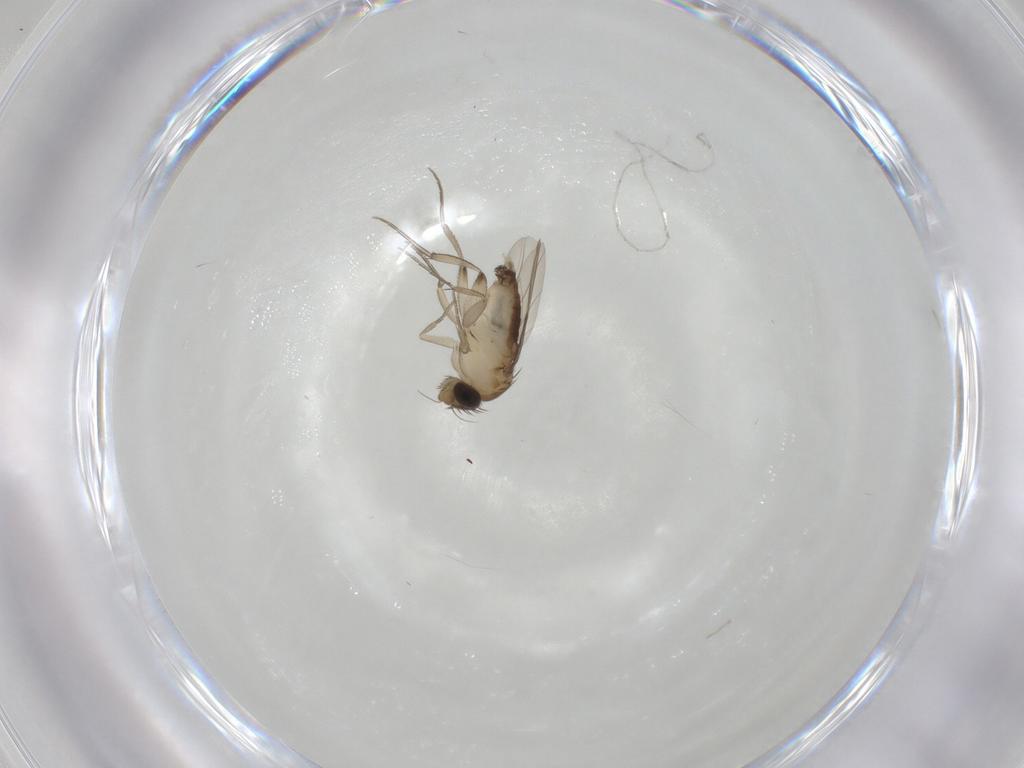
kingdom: Animalia
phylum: Arthropoda
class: Insecta
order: Diptera
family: Phoridae
